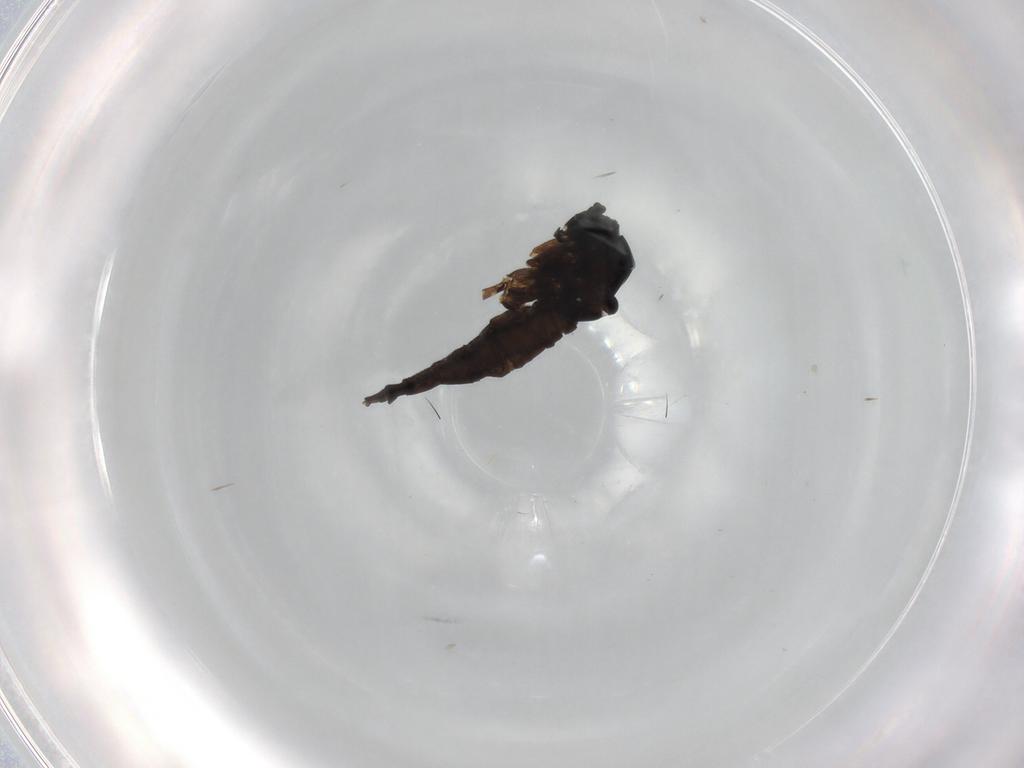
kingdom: Animalia
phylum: Arthropoda
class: Insecta
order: Diptera
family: Sciaridae
